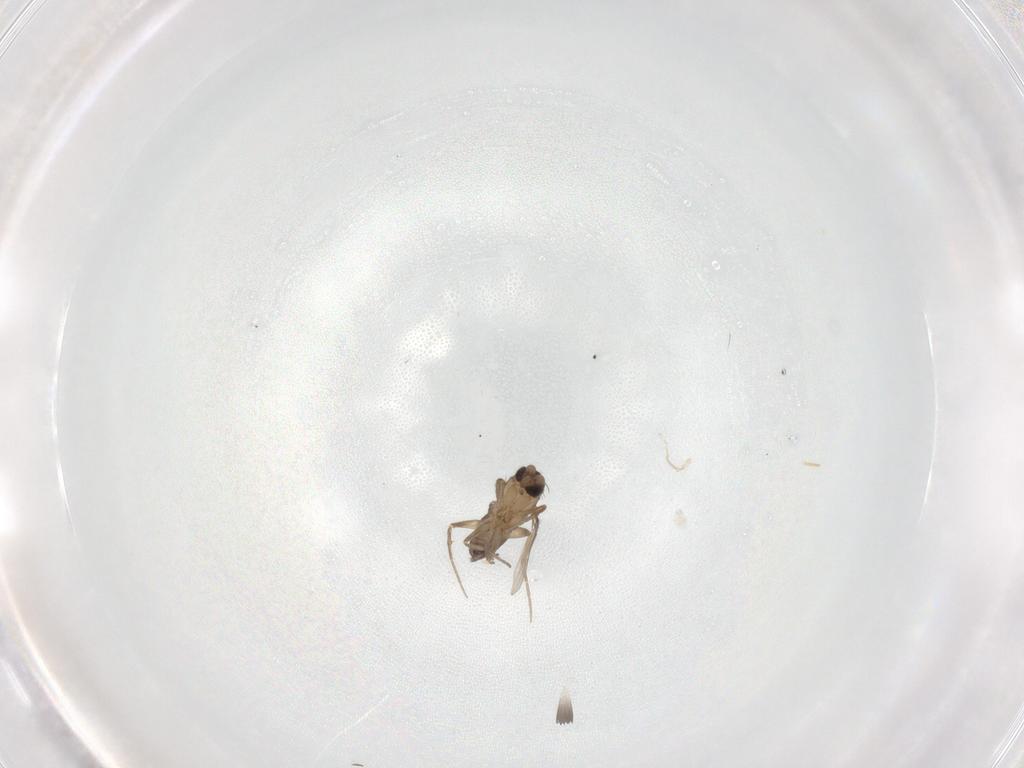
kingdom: Animalia
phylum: Arthropoda
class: Insecta
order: Diptera
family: Phoridae
